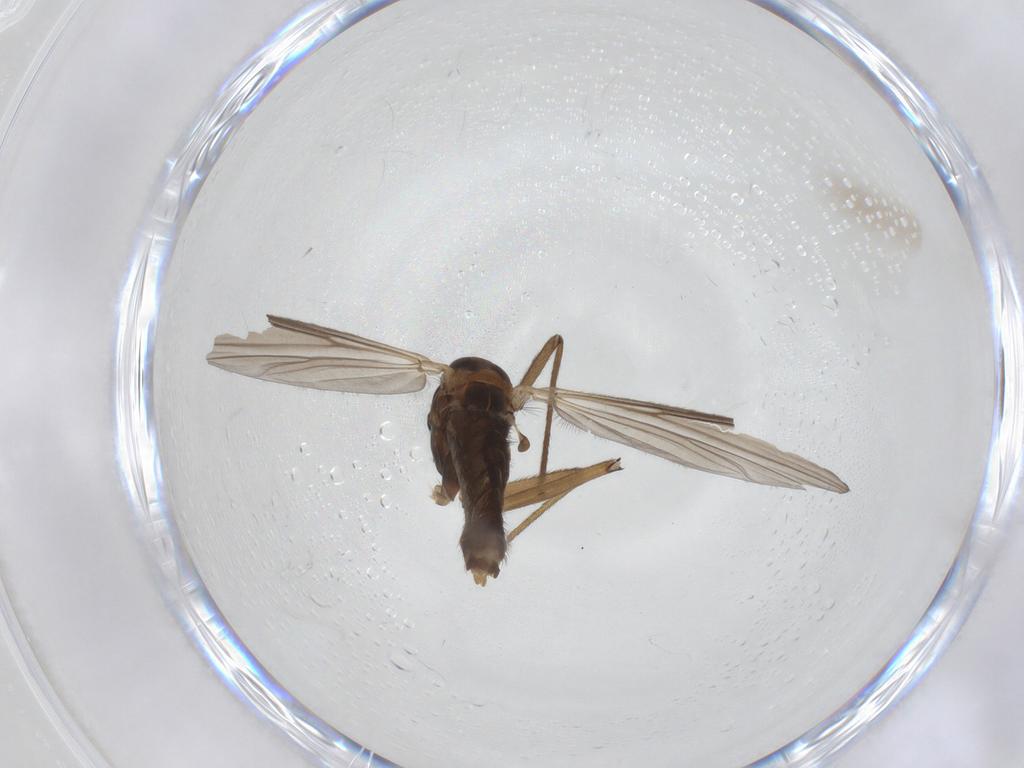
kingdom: Animalia
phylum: Arthropoda
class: Insecta
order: Diptera
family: Chironomidae
